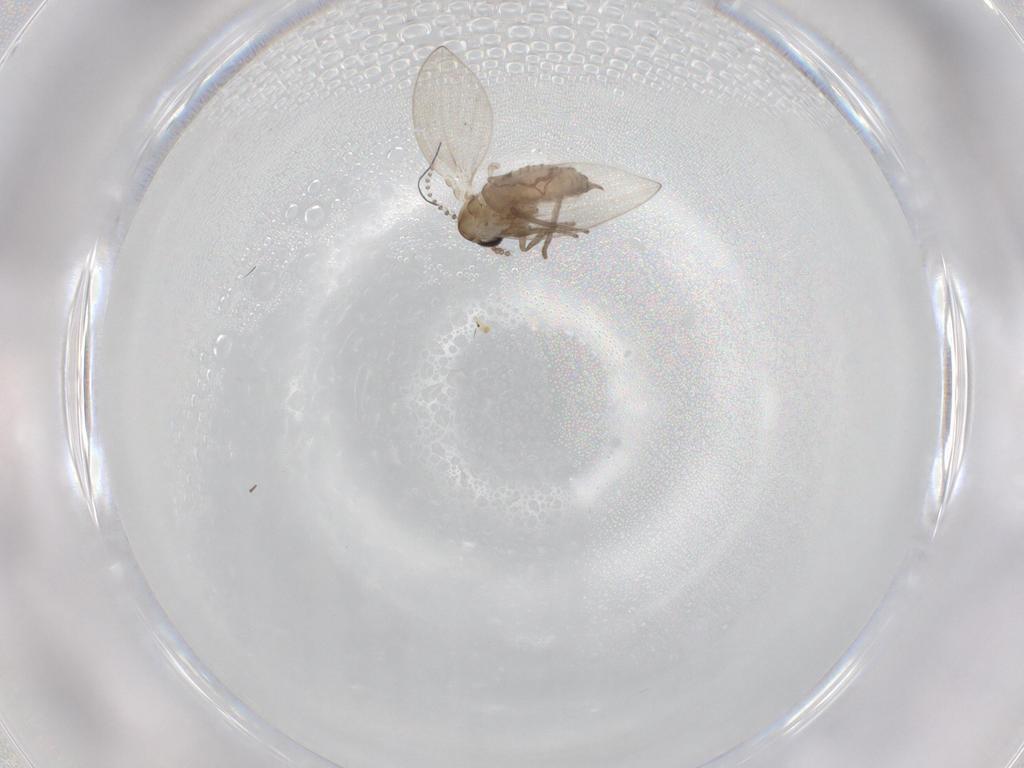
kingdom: Animalia
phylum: Arthropoda
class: Insecta
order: Diptera
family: Psychodidae
